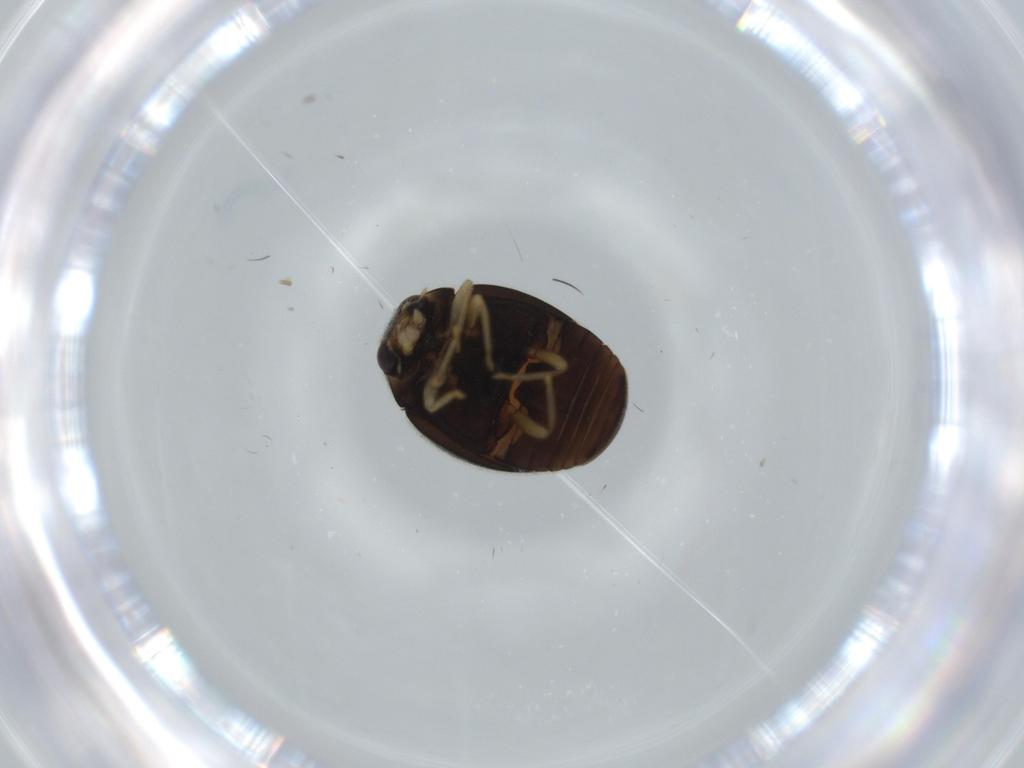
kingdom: Animalia
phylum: Arthropoda
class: Insecta
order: Coleoptera
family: Coccinellidae
